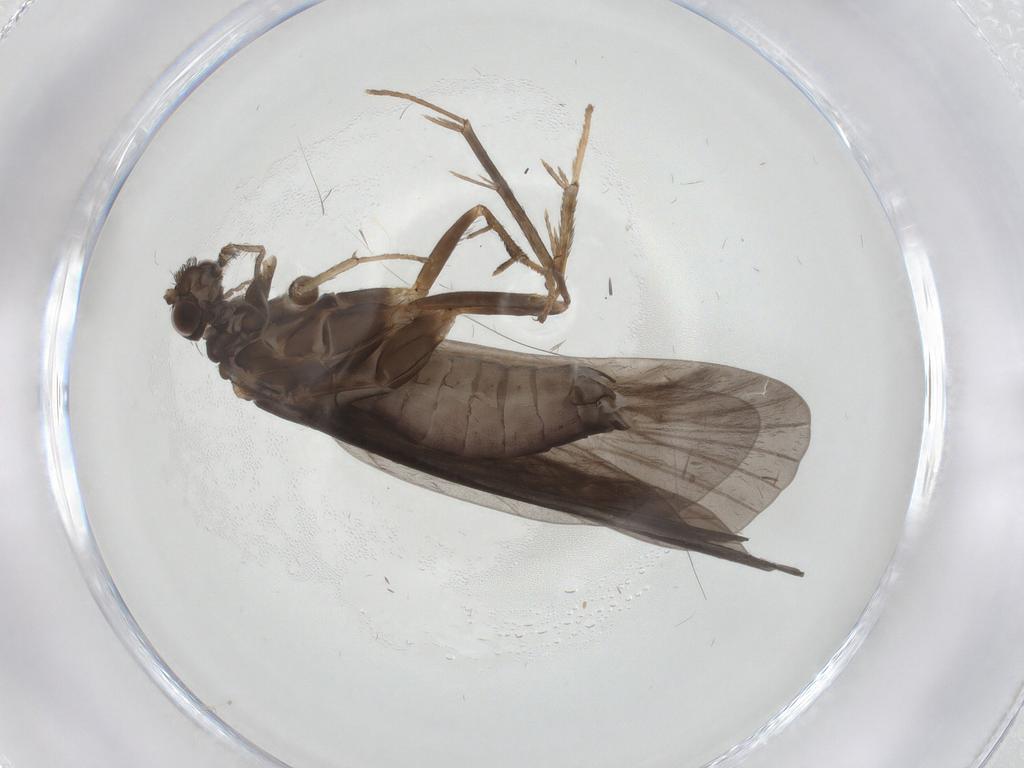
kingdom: Animalia
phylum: Arthropoda
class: Insecta
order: Trichoptera
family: Hydropsychidae
